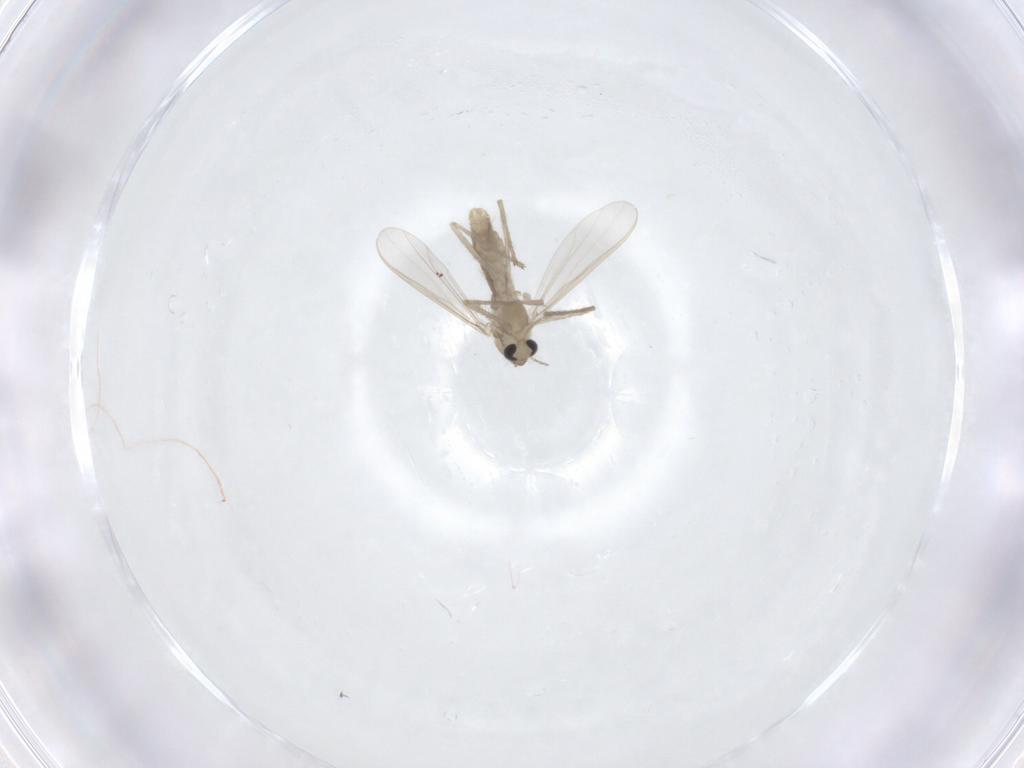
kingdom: Animalia
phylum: Arthropoda
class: Insecta
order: Diptera
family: Chironomidae
